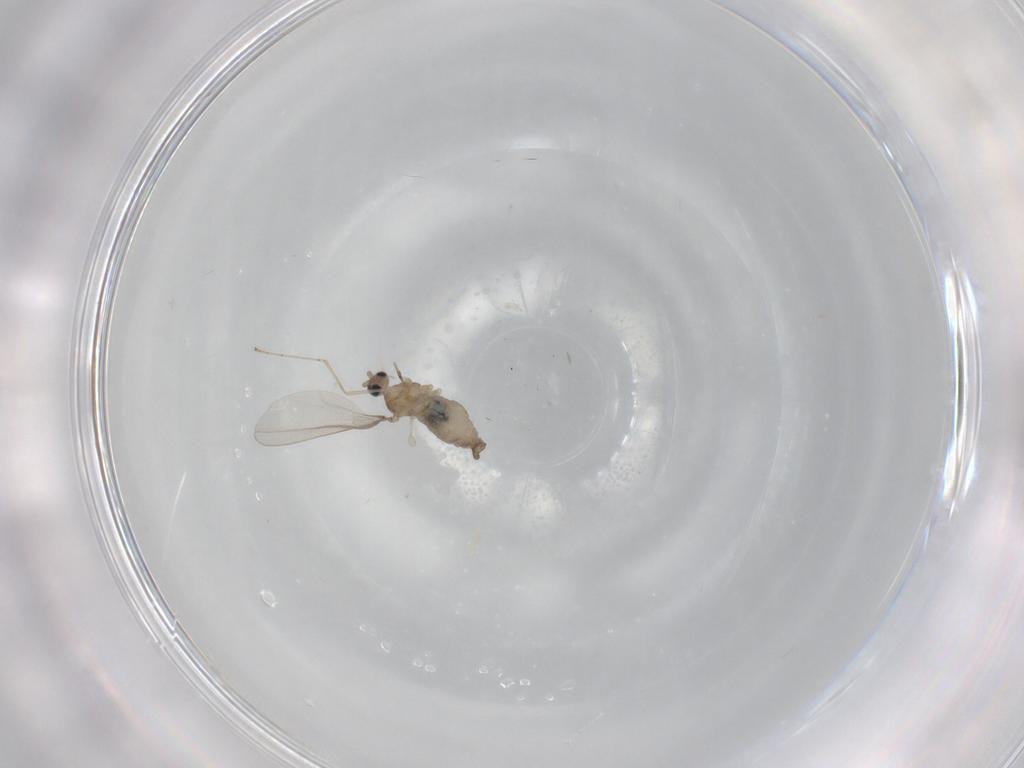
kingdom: Animalia
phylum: Arthropoda
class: Insecta
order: Diptera
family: Cecidomyiidae
